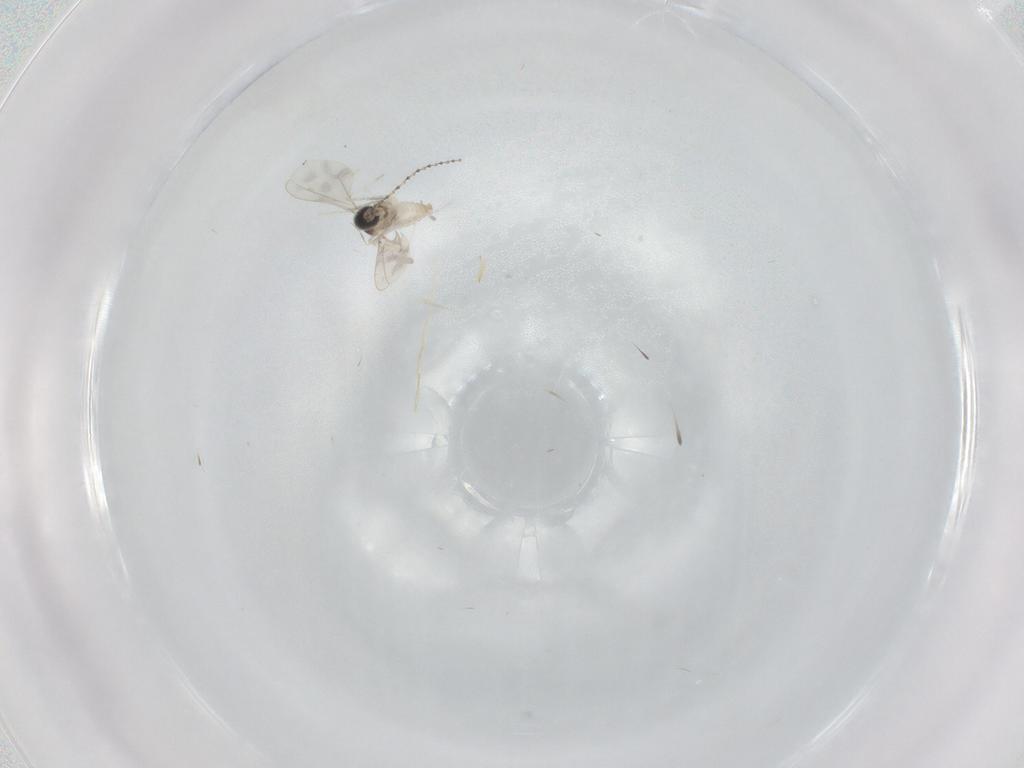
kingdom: Animalia
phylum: Arthropoda
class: Insecta
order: Diptera
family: Cecidomyiidae
